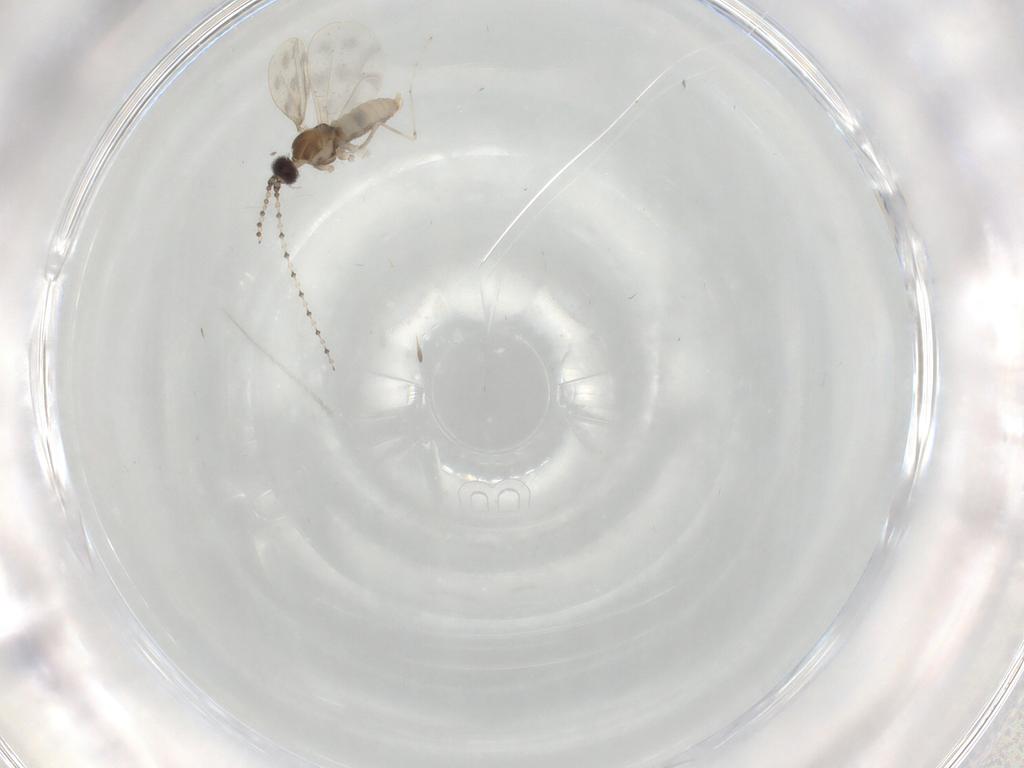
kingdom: Animalia
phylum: Arthropoda
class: Insecta
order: Diptera
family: Cecidomyiidae
